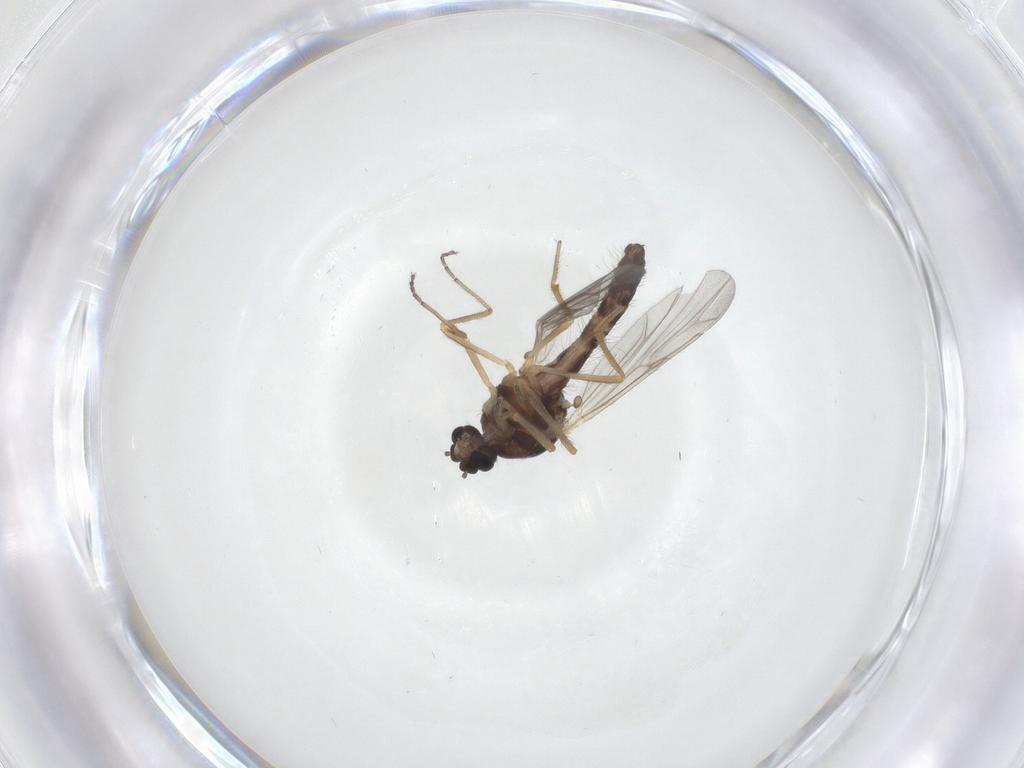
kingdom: Animalia
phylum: Arthropoda
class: Insecta
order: Diptera
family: Ceratopogonidae
